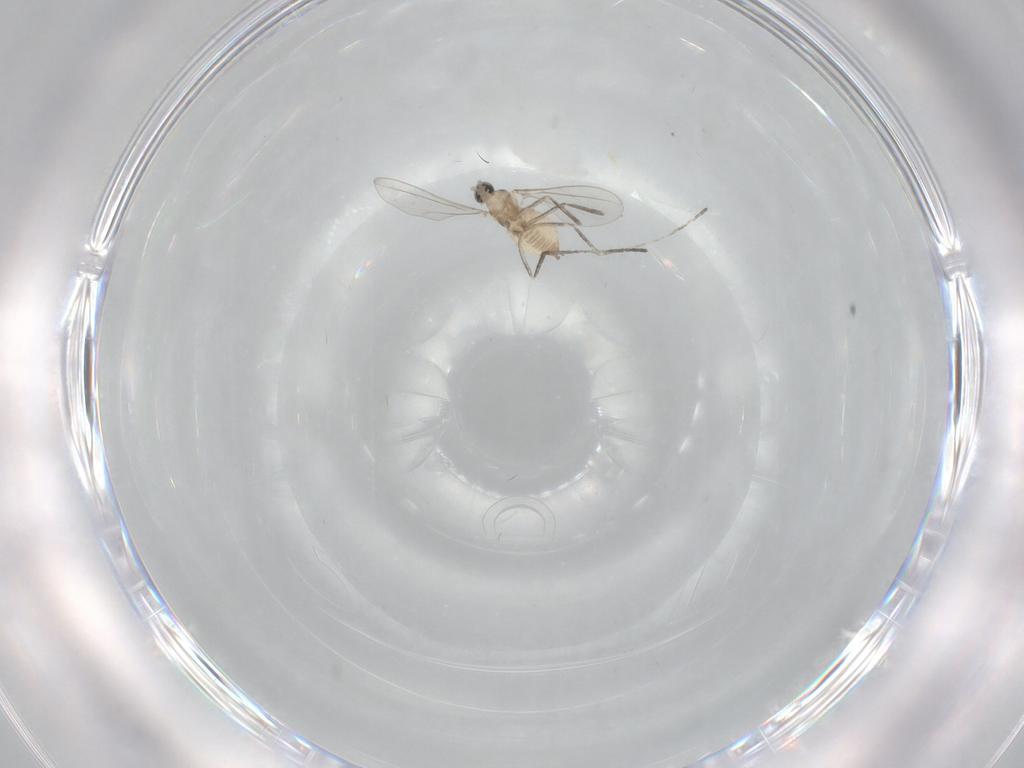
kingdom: Animalia
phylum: Arthropoda
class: Insecta
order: Diptera
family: Cecidomyiidae
